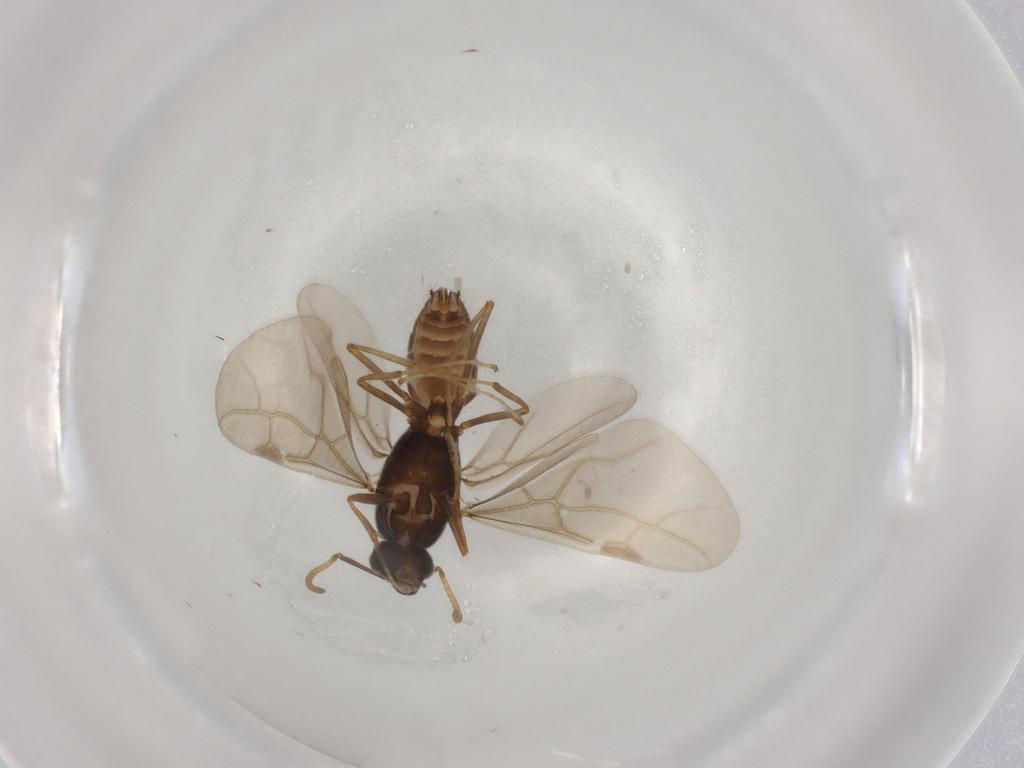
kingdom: Animalia
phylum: Arthropoda
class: Insecta
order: Hymenoptera
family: Formicidae
